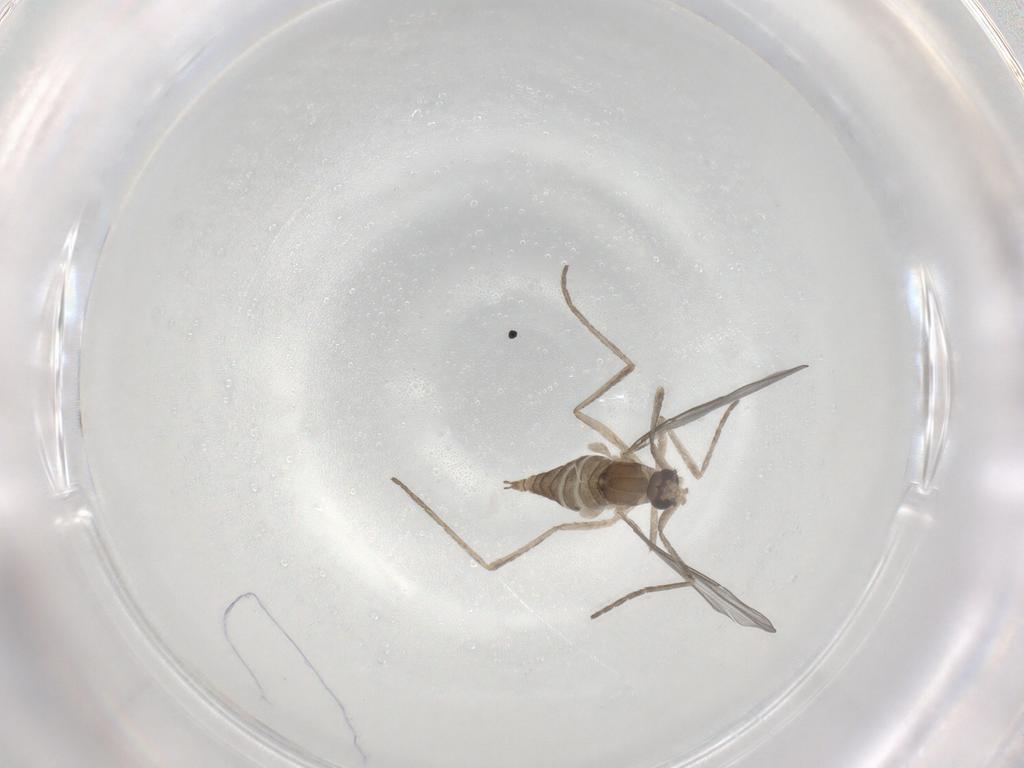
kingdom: Animalia
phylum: Arthropoda
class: Insecta
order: Diptera
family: Cecidomyiidae
